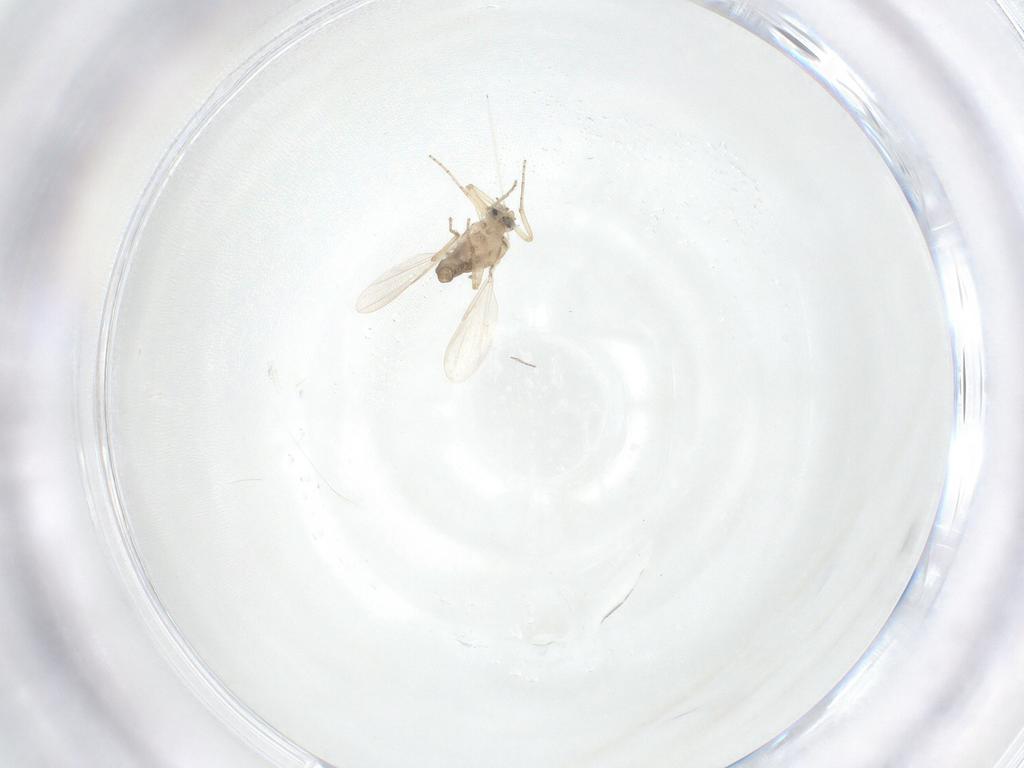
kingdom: Animalia
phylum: Arthropoda
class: Insecta
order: Diptera
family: Ceratopogonidae
